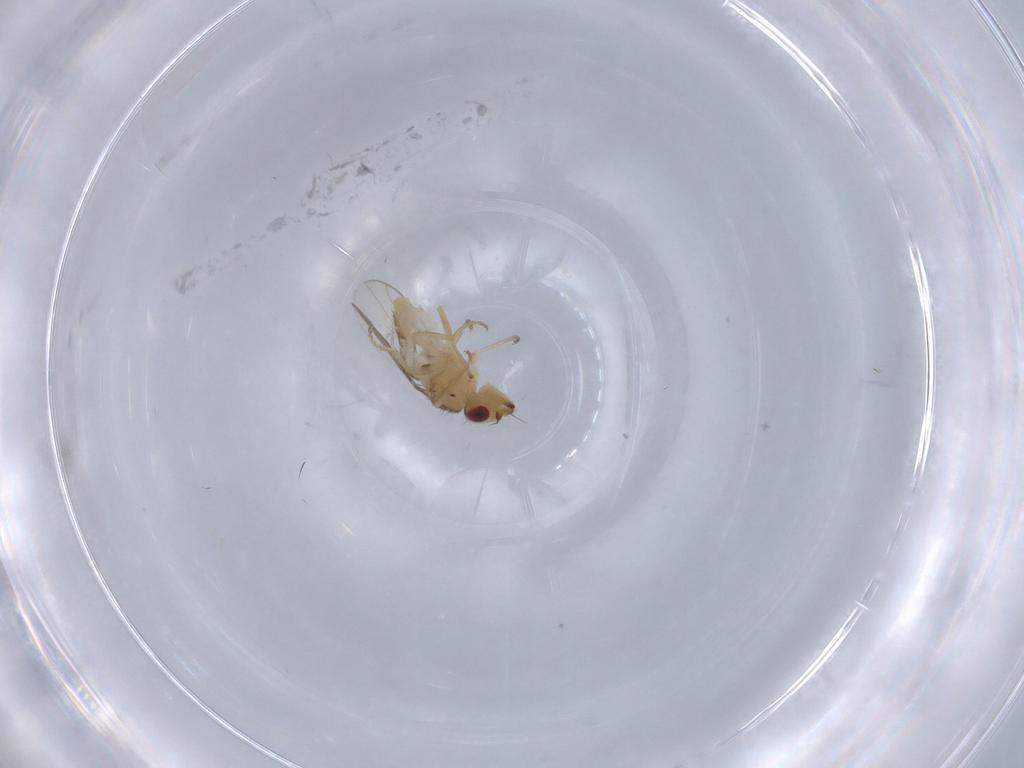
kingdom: Animalia
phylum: Arthropoda
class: Insecta
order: Diptera
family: Chloropidae
